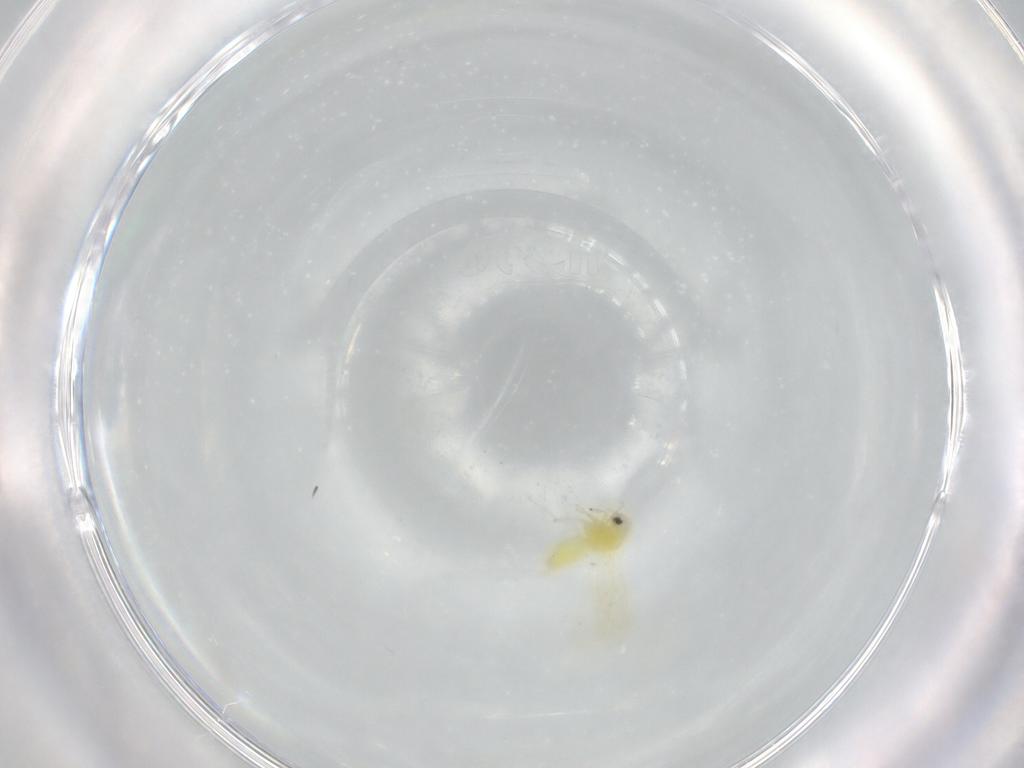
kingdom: Animalia
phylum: Arthropoda
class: Insecta
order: Hemiptera
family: Aleyrodidae
